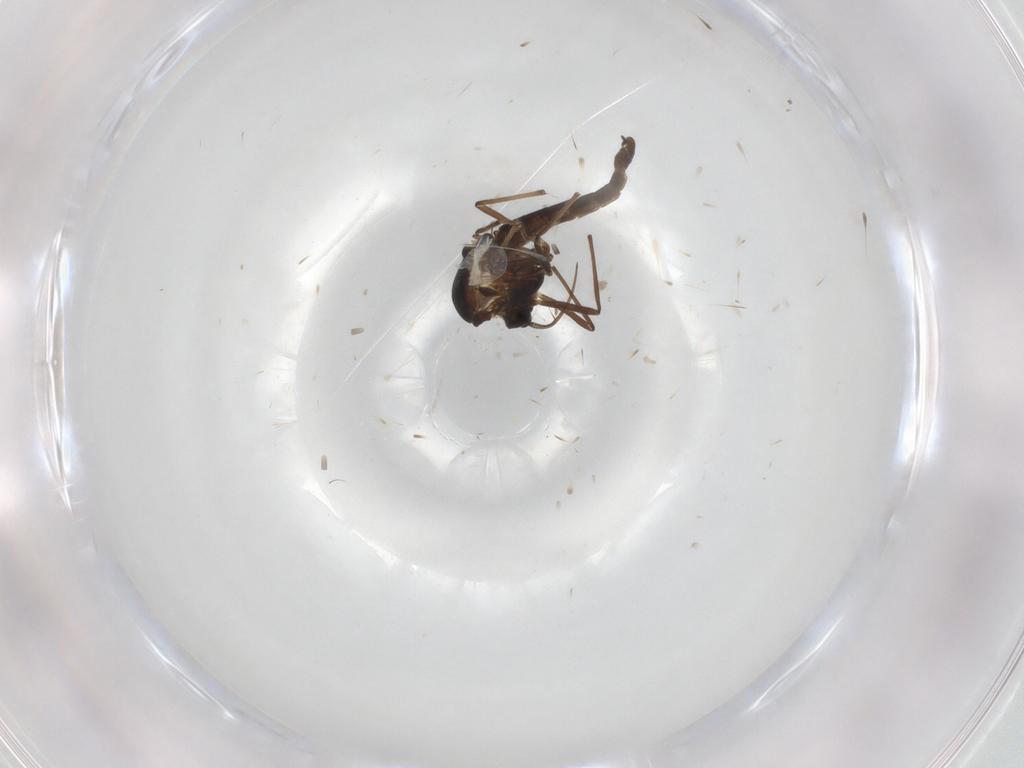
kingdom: Animalia
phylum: Arthropoda
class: Insecta
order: Diptera
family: Chironomidae
